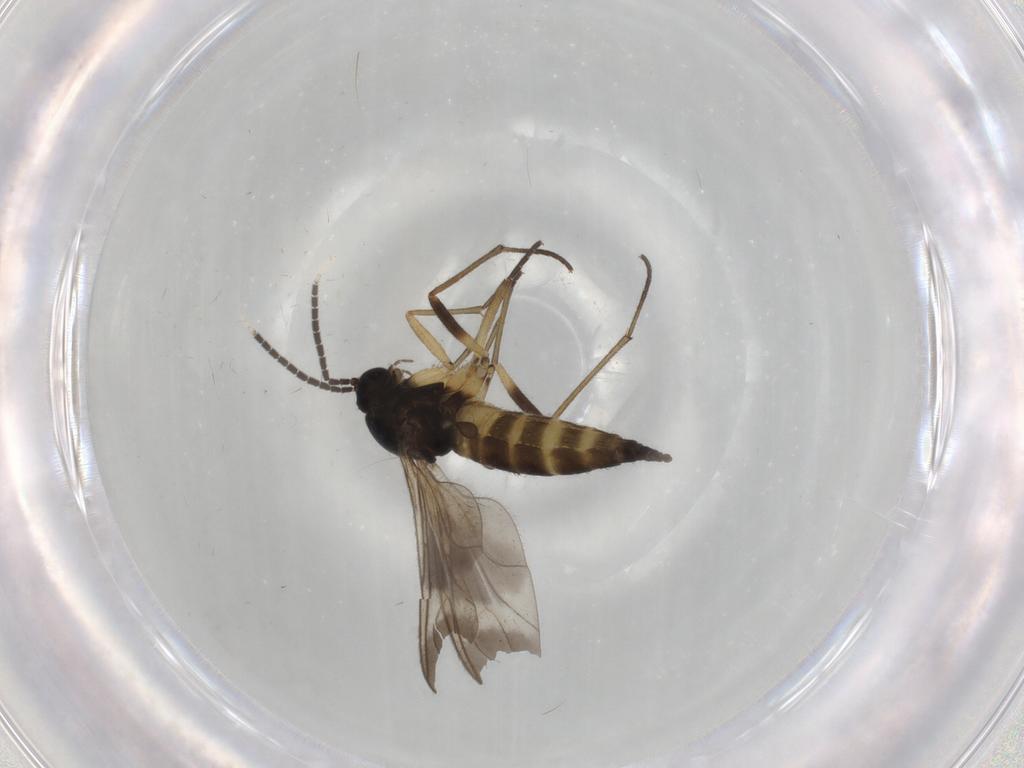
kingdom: Animalia
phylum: Arthropoda
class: Insecta
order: Diptera
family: Sciaridae
